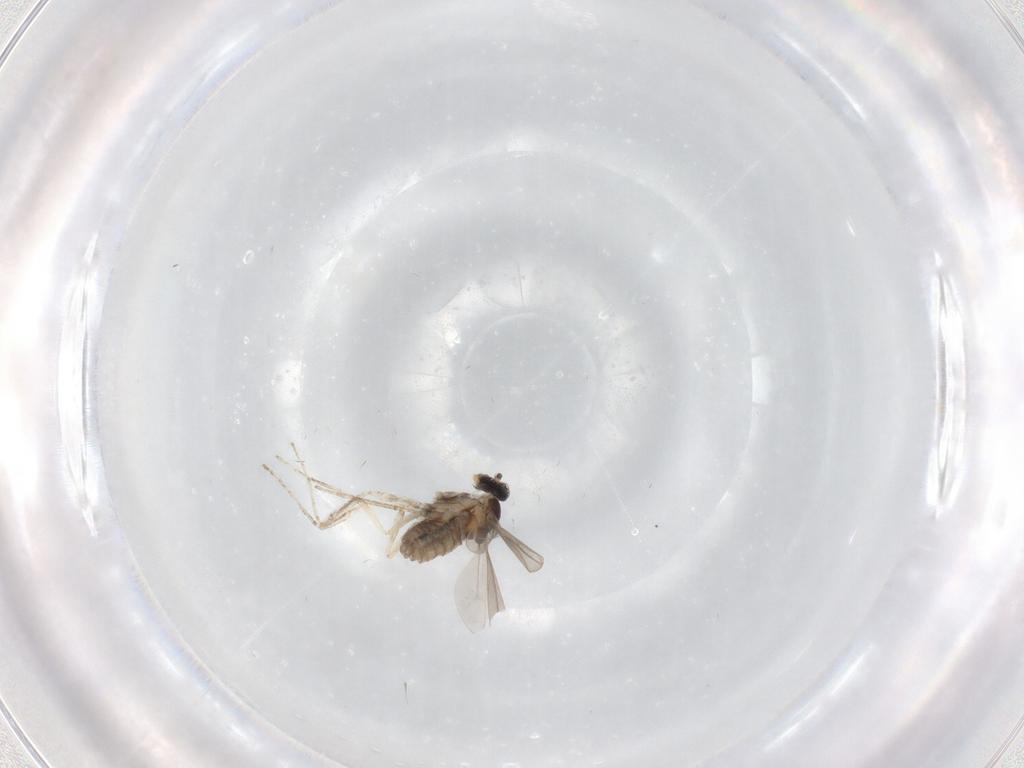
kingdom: Animalia
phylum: Arthropoda
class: Insecta
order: Diptera
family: Cecidomyiidae
